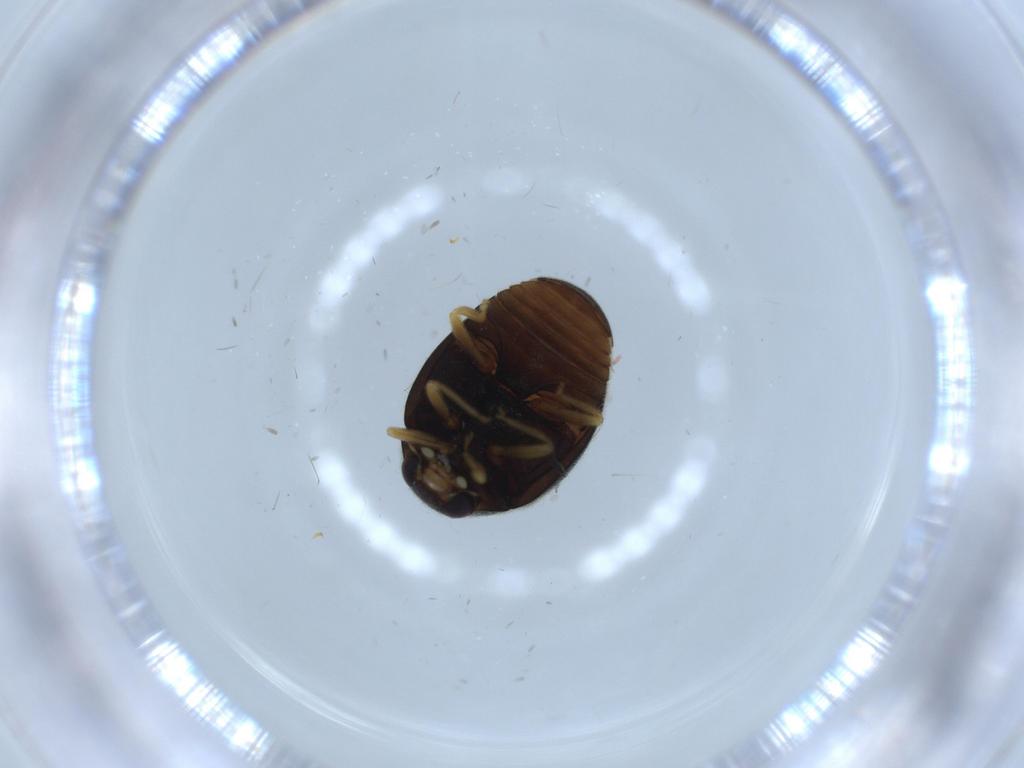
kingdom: Animalia
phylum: Arthropoda
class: Insecta
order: Coleoptera
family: Coccinellidae
